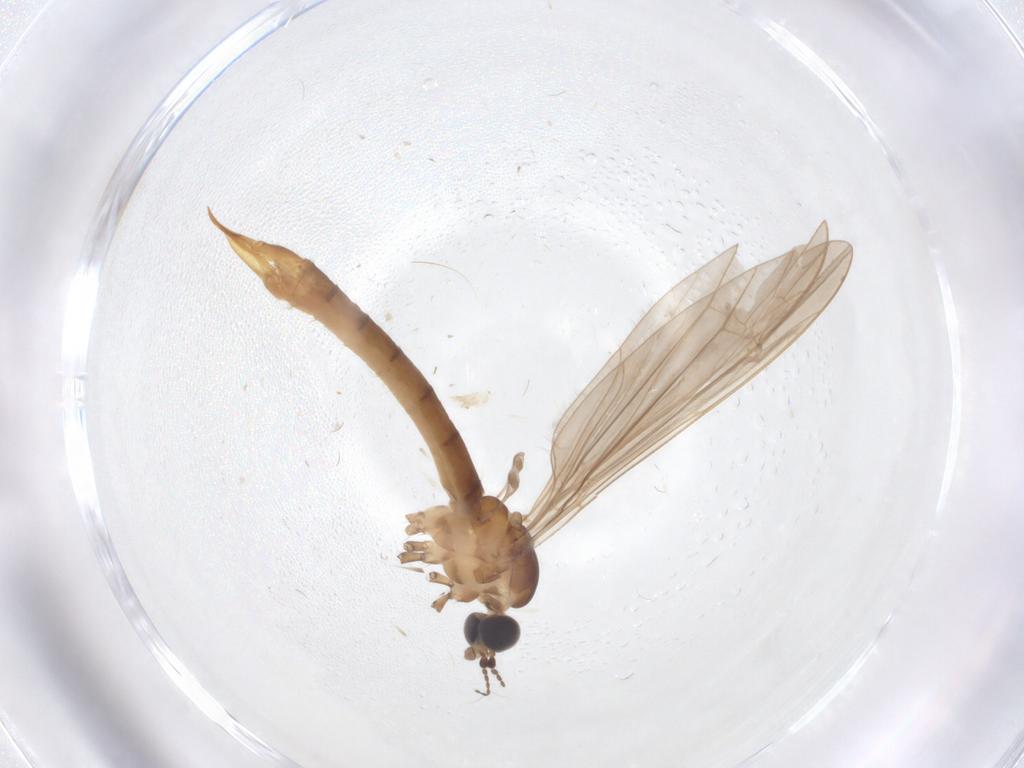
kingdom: Animalia
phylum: Arthropoda
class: Insecta
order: Diptera
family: Limoniidae
